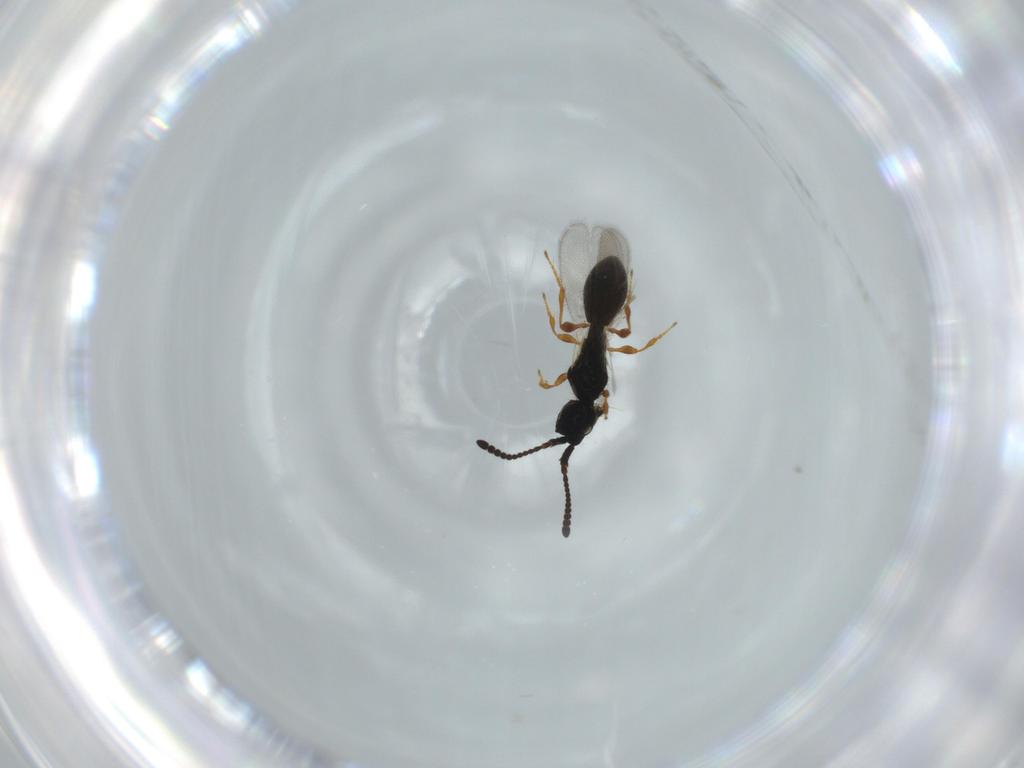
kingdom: Animalia
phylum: Arthropoda
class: Insecta
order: Hymenoptera
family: Diapriidae
